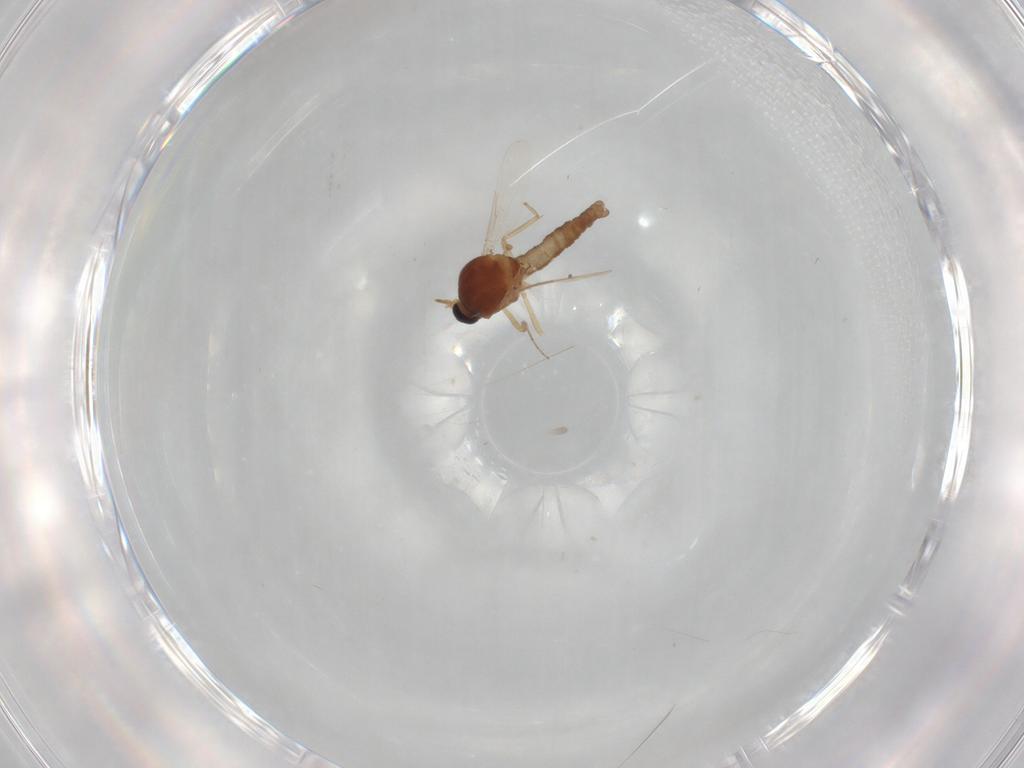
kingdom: Animalia
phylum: Arthropoda
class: Insecta
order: Diptera
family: Ceratopogonidae
